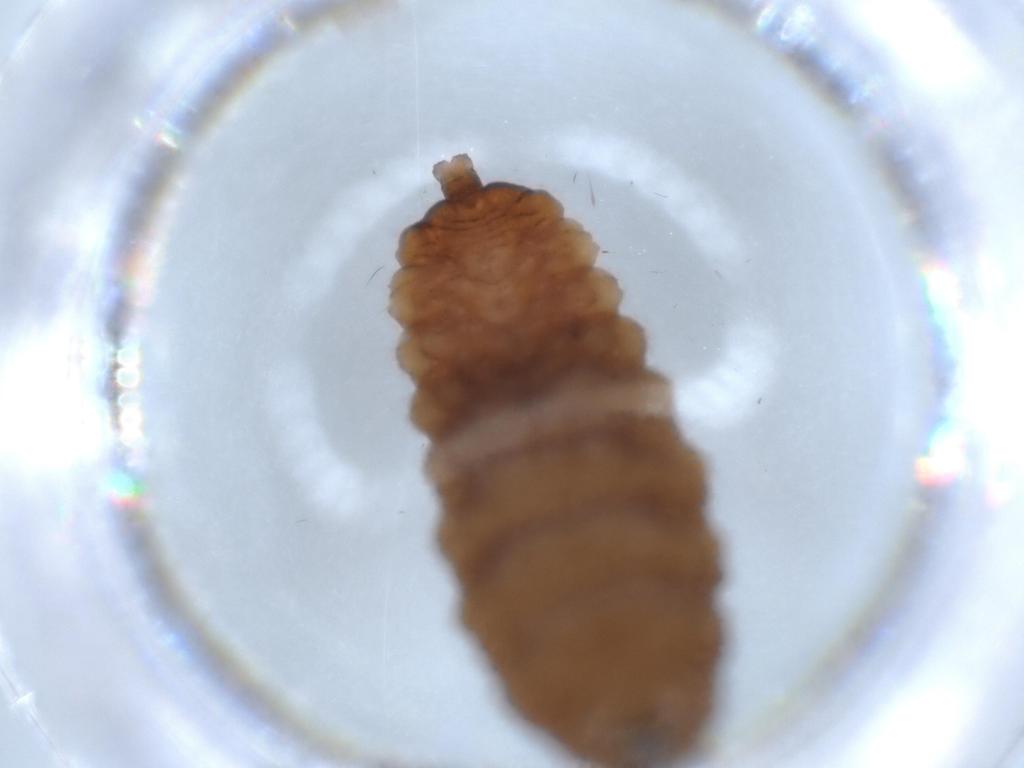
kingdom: Animalia
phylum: Arthropoda
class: Insecta
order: Diptera
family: Syrphidae
